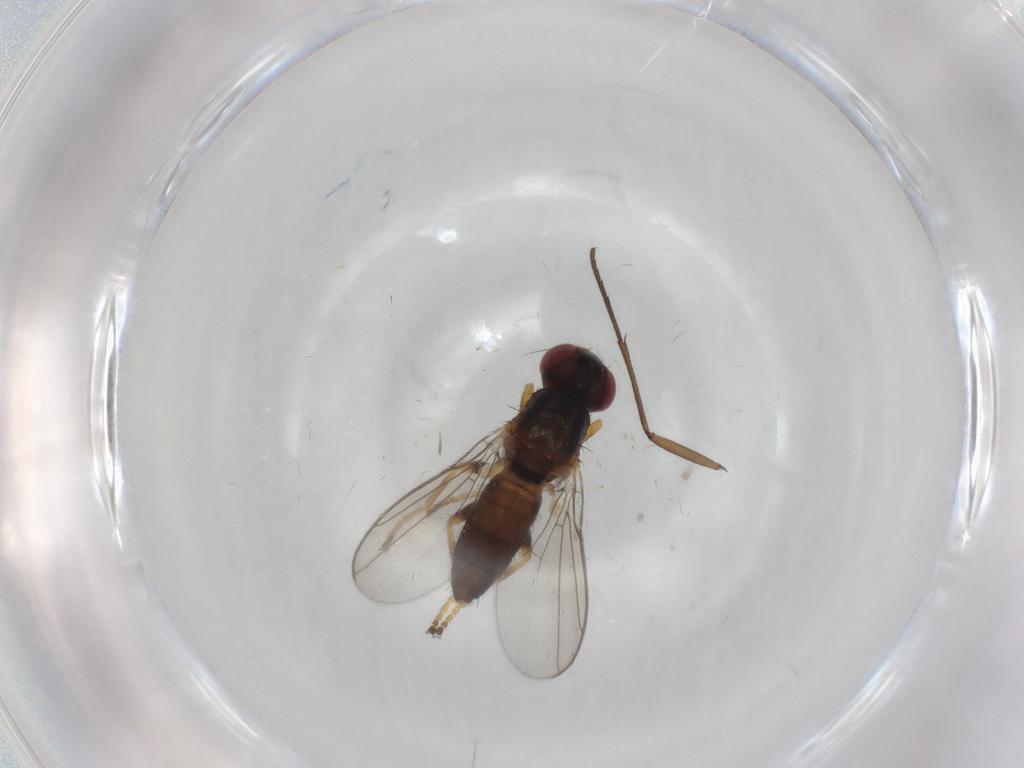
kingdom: Animalia
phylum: Arthropoda
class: Insecta
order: Diptera
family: Chloropidae
